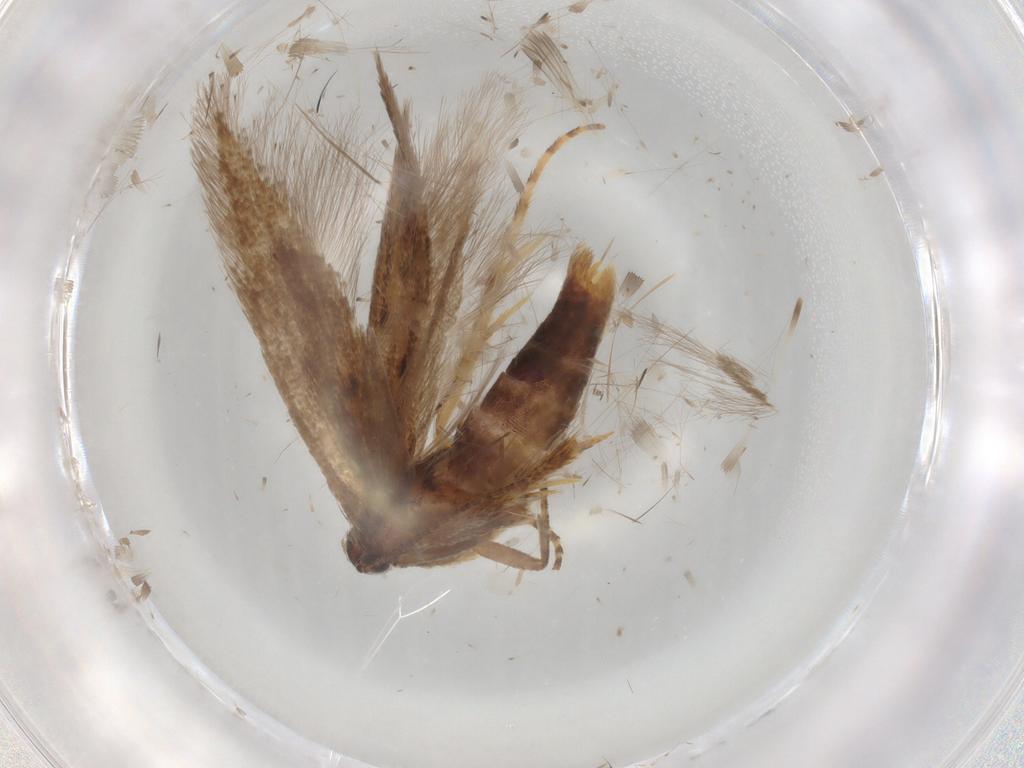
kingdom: Animalia
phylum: Arthropoda
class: Insecta
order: Lepidoptera
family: Gelechiidae
